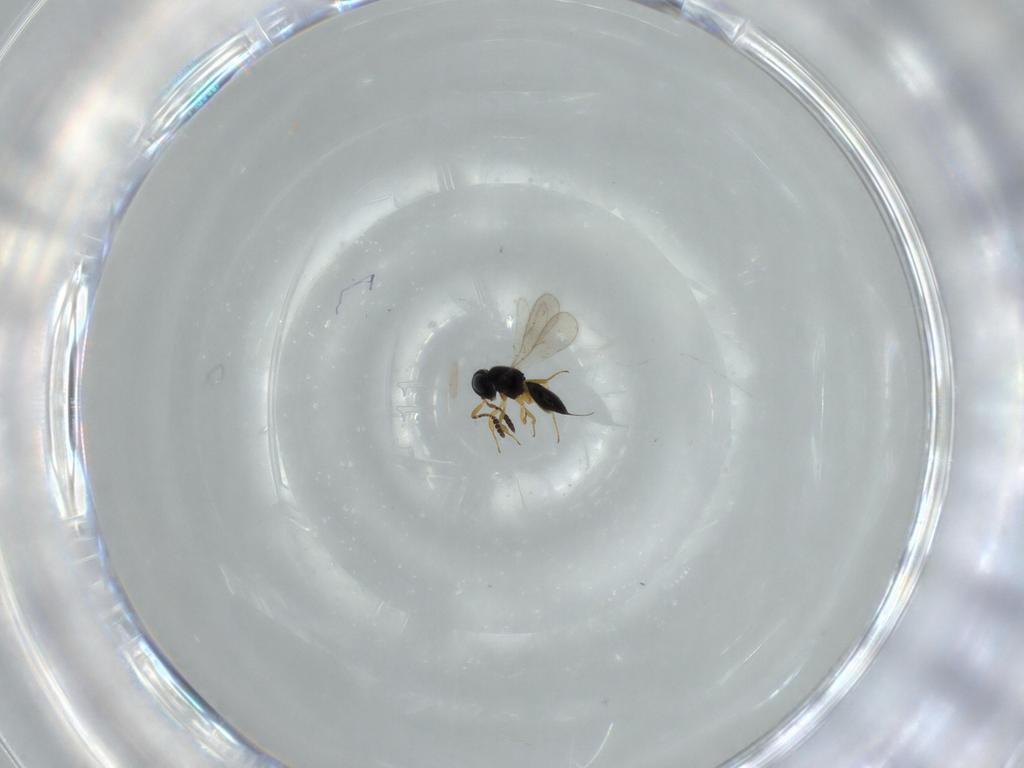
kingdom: Animalia
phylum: Arthropoda
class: Insecta
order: Hymenoptera
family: Scelionidae
